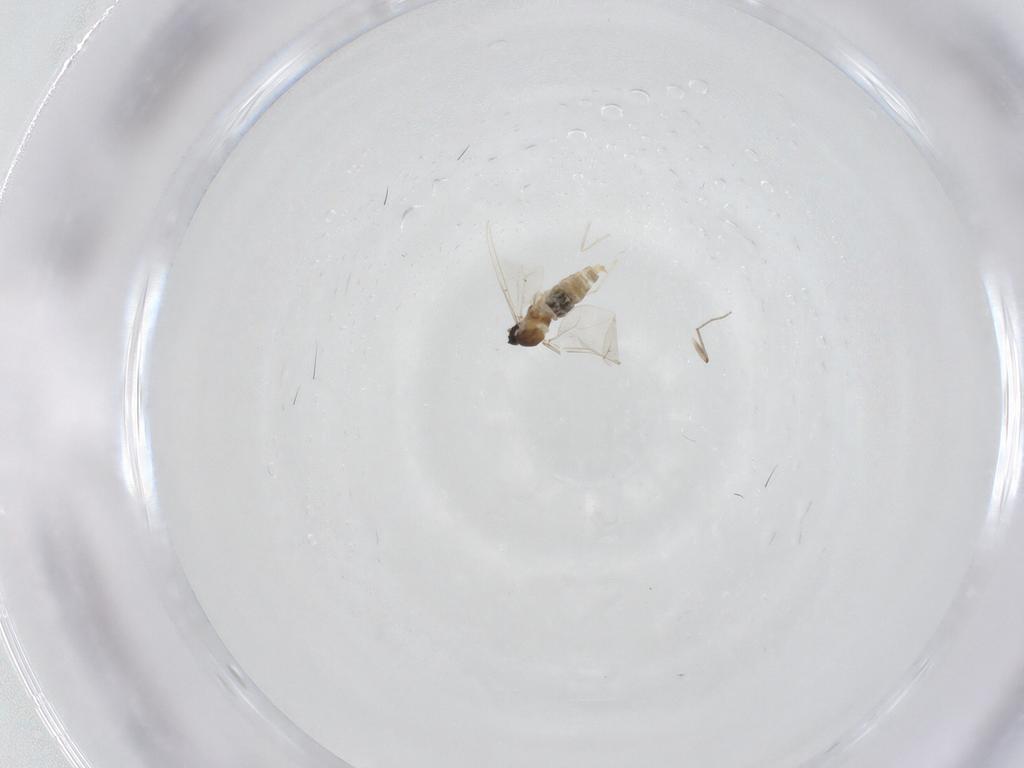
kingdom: Animalia
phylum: Arthropoda
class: Insecta
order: Diptera
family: Chironomidae
